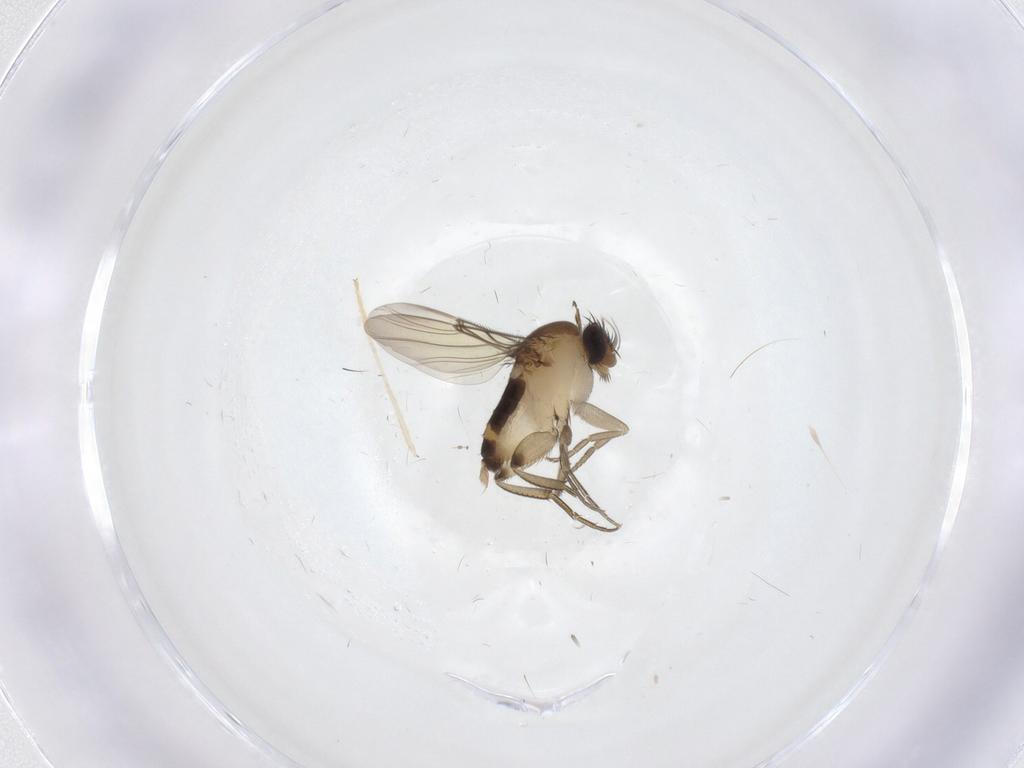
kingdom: Animalia
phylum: Arthropoda
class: Insecta
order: Diptera
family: Phoridae
